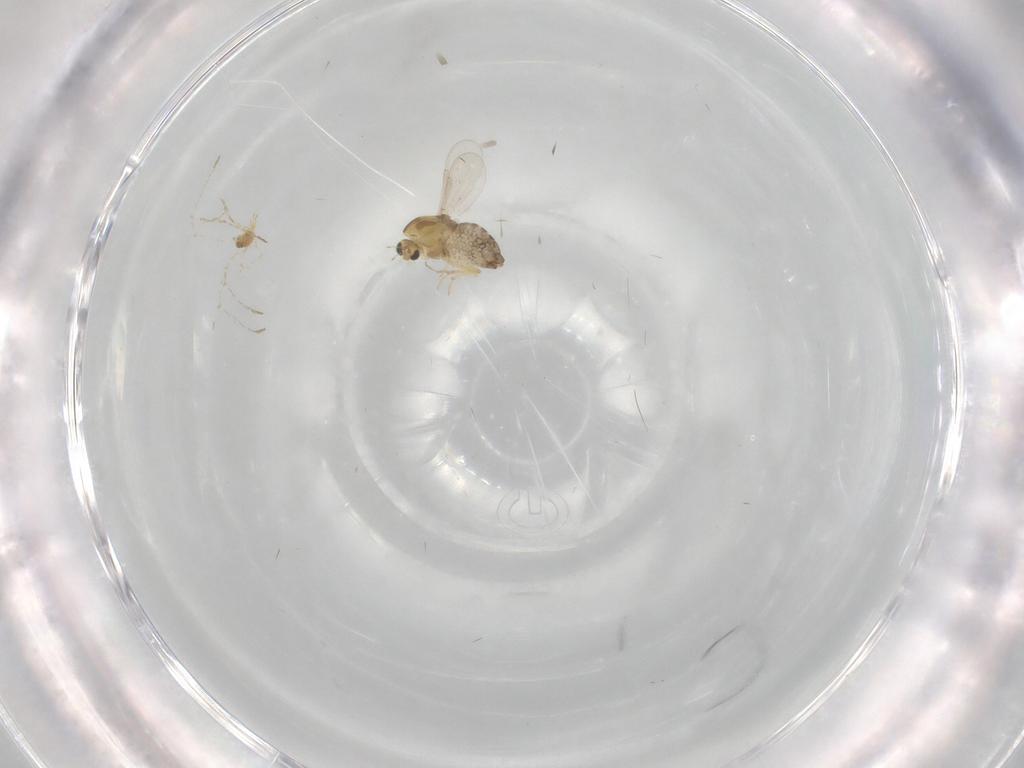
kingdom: Animalia
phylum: Arthropoda
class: Insecta
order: Diptera
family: Chironomidae
